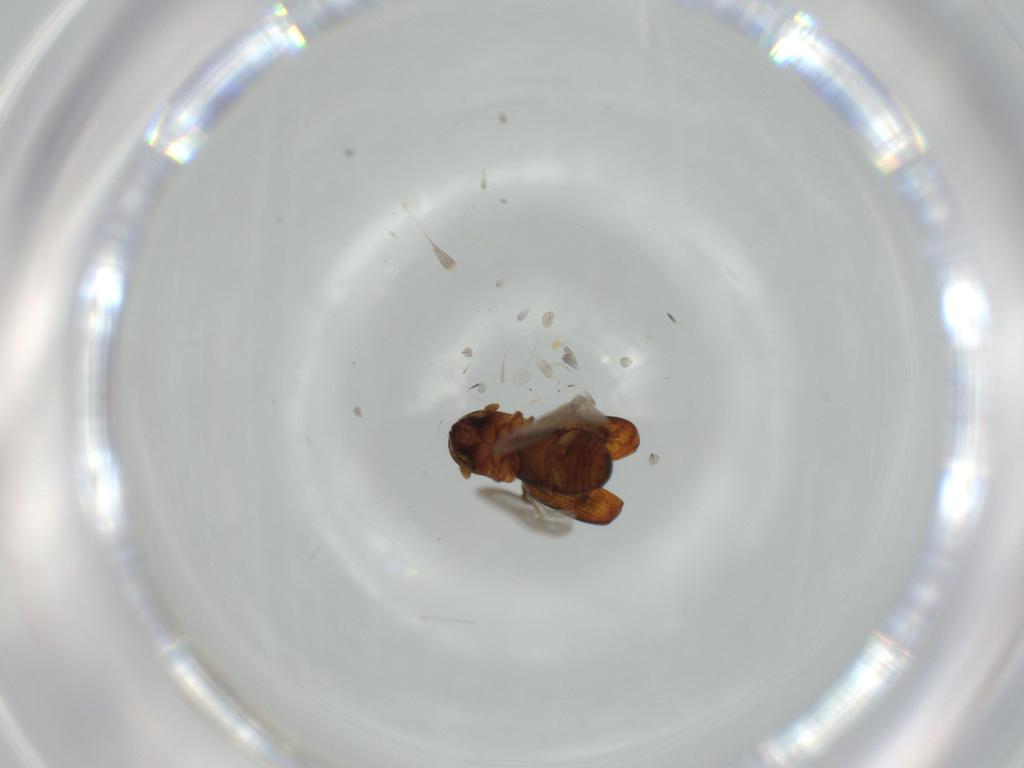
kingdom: Animalia
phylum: Arthropoda
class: Insecta
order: Coleoptera
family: Curculionidae
